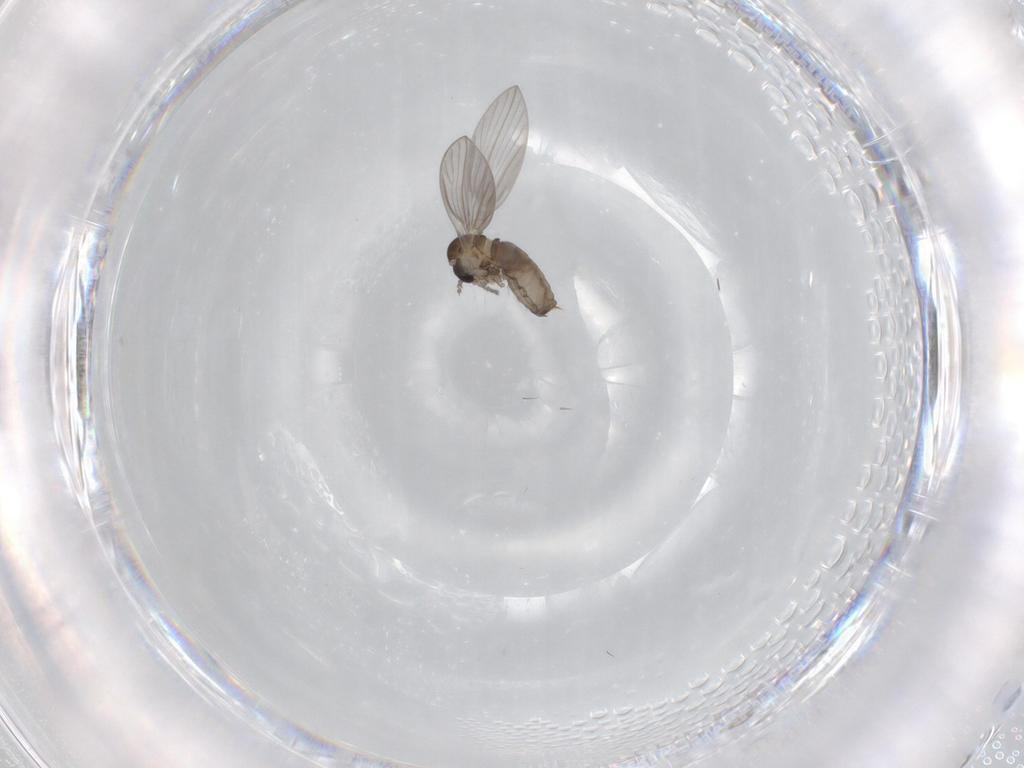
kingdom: Animalia
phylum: Arthropoda
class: Insecta
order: Diptera
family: Psychodidae
